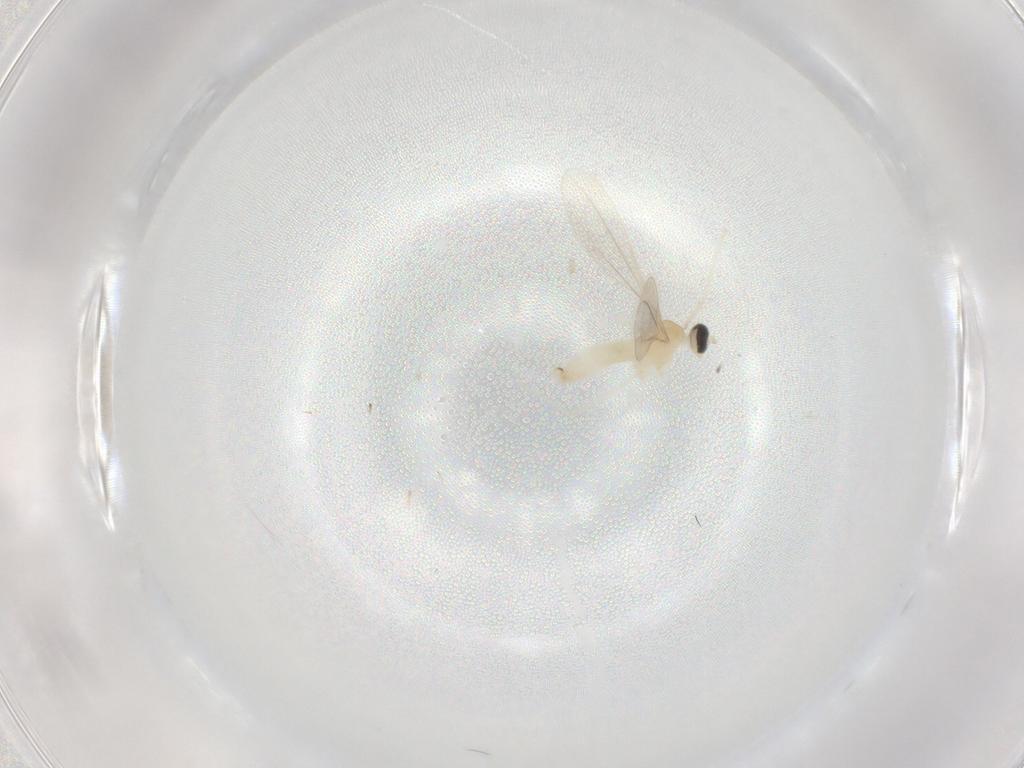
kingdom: Animalia
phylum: Arthropoda
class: Insecta
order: Diptera
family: Cecidomyiidae
